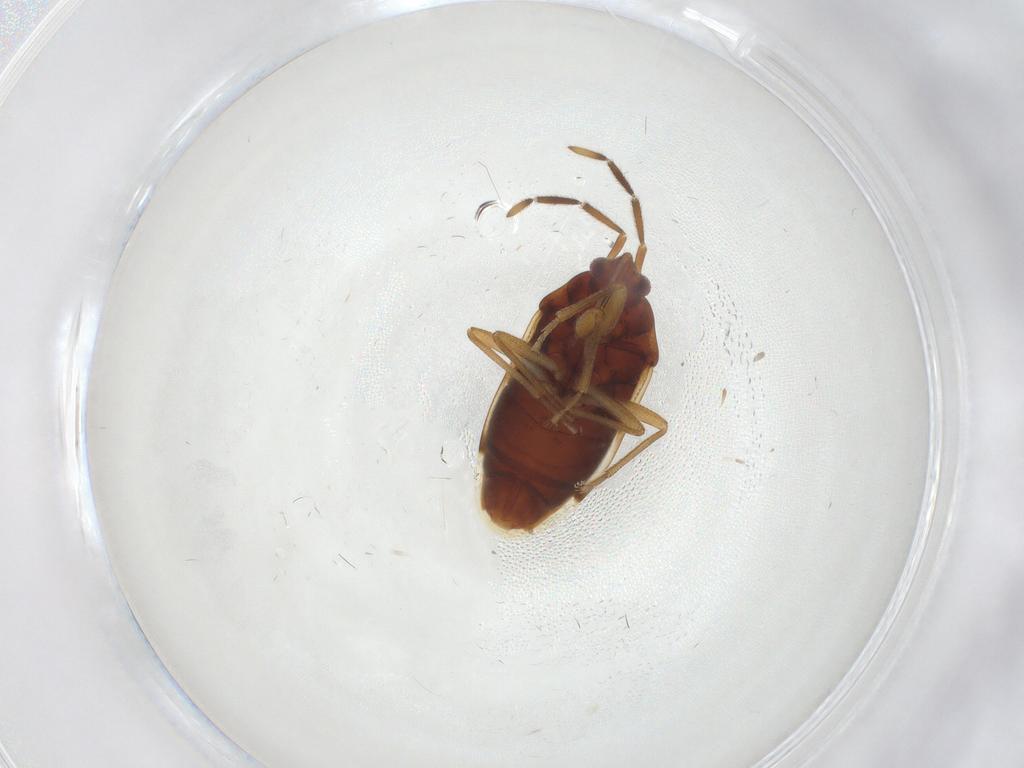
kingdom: Animalia
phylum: Arthropoda
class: Insecta
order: Hemiptera
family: Rhyparochromidae
